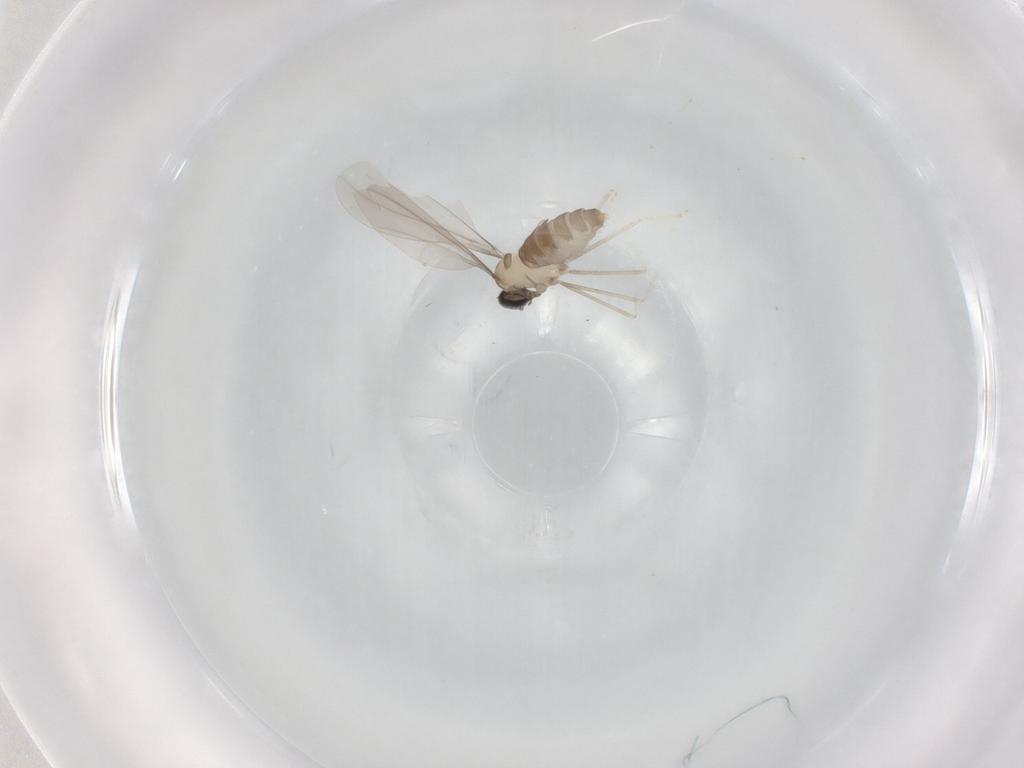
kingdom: Animalia
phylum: Arthropoda
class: Insecta
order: Diptera
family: Cecidomyiidae
